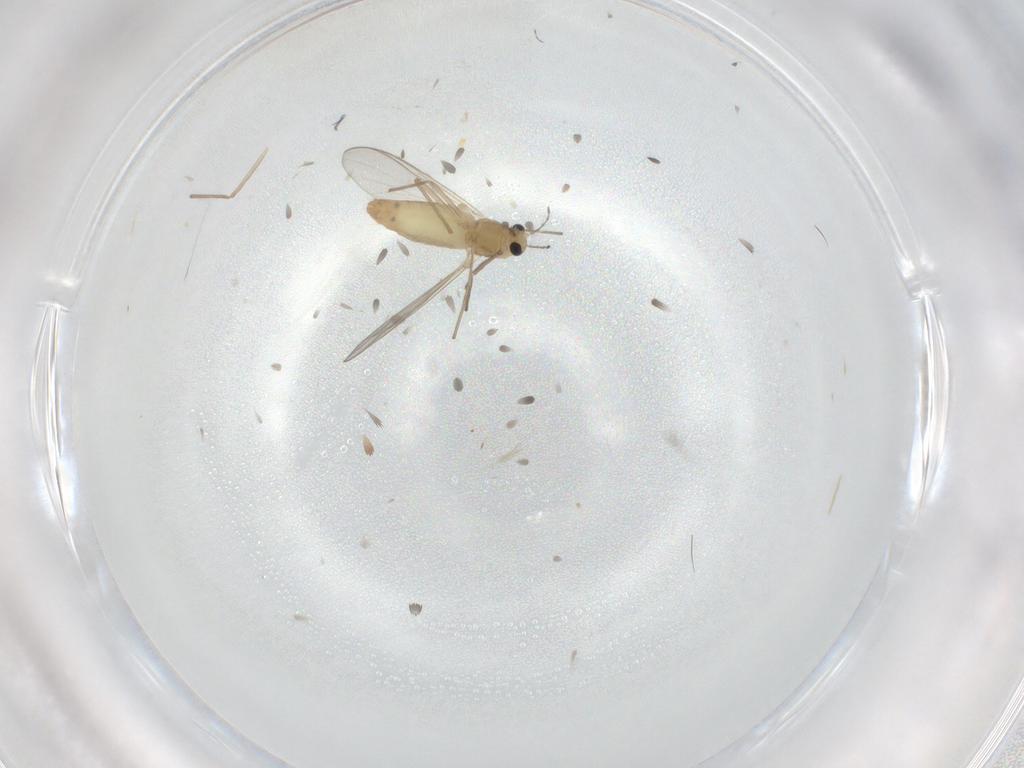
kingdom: Animalia
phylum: Arthropoda
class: Insecta
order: Diptera
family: Chironomidae
